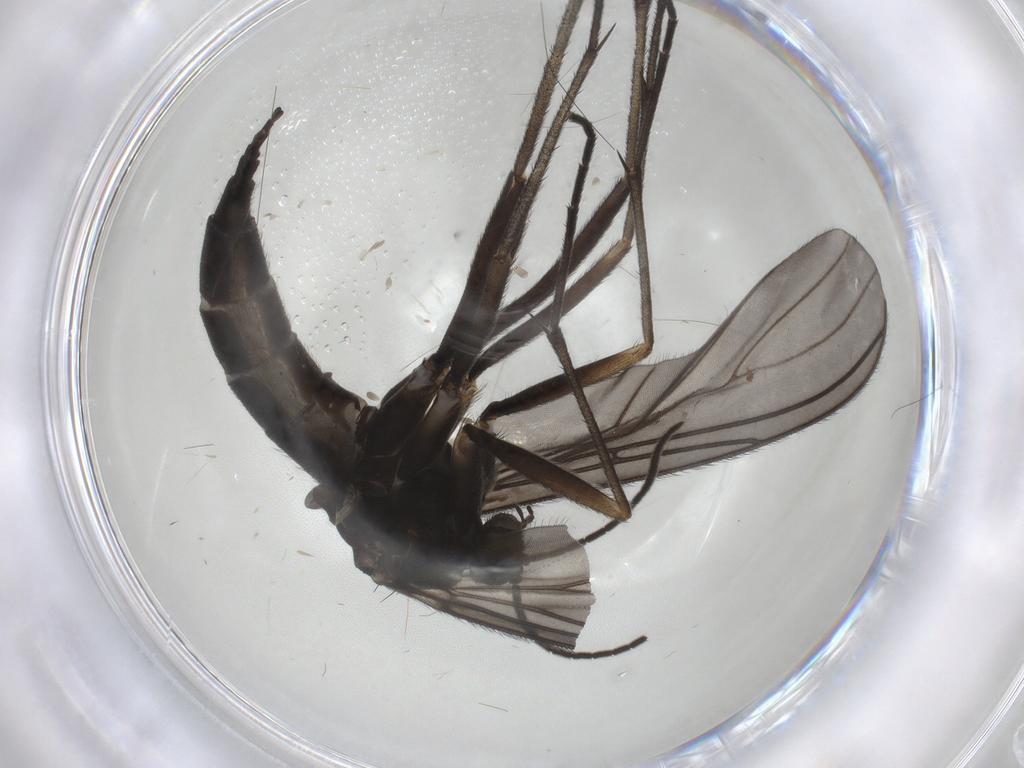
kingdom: Animalia
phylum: Arthropoda
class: Insecta
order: Diptera
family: Sciaridae
